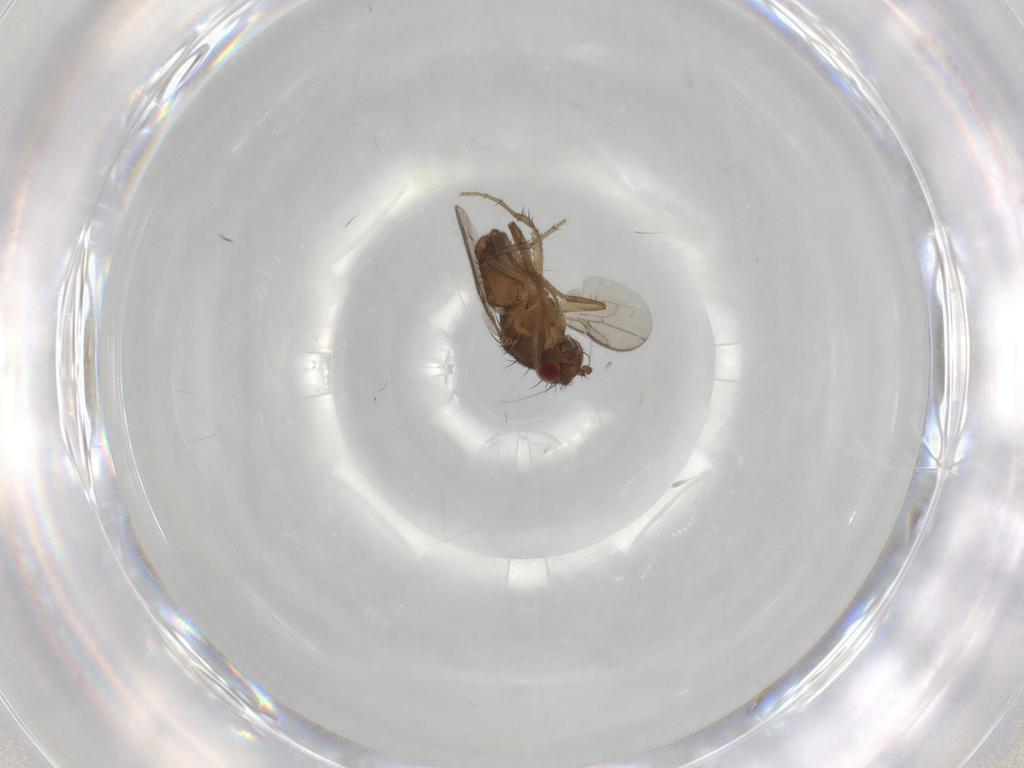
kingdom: Animalia
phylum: Arthropoda
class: Insecta
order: Diptera
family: Sphaeroceridae
